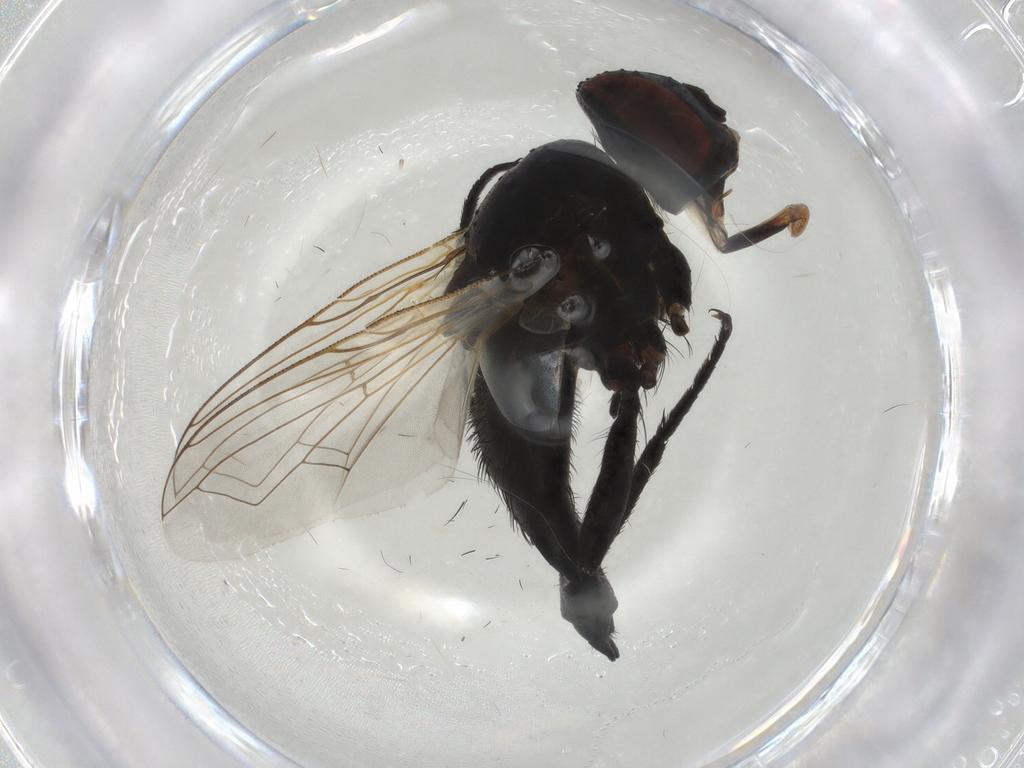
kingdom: Animalia
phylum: Arthropoda
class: Insecta
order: Diptera
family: Tachinidae
